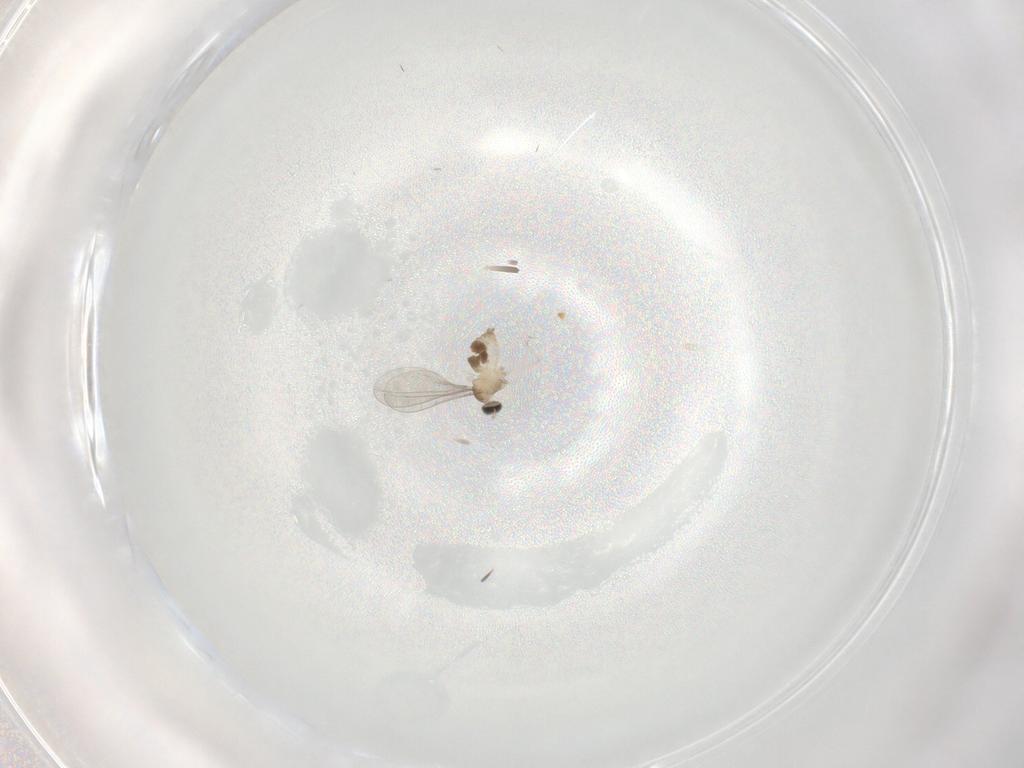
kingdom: Animalia
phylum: Arthropoda
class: Insecta
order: Diptera
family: Cecidomyiidae
